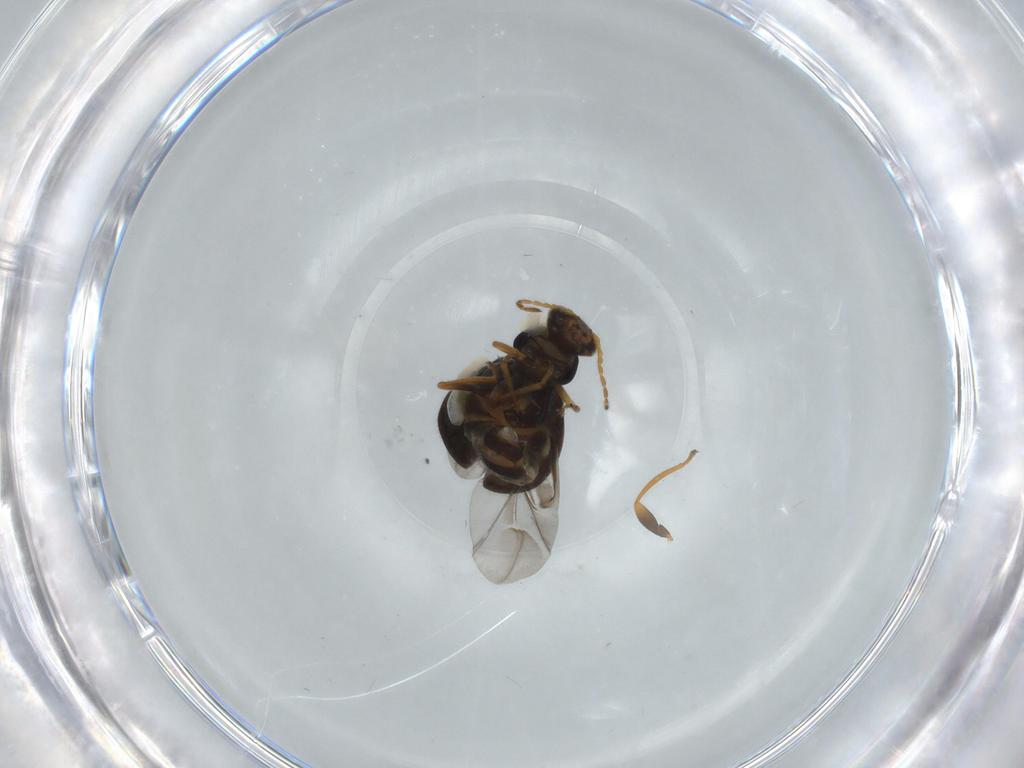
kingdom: Animalia
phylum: Arthropoda
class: Insecta
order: Coleoptera
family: Melyridae
